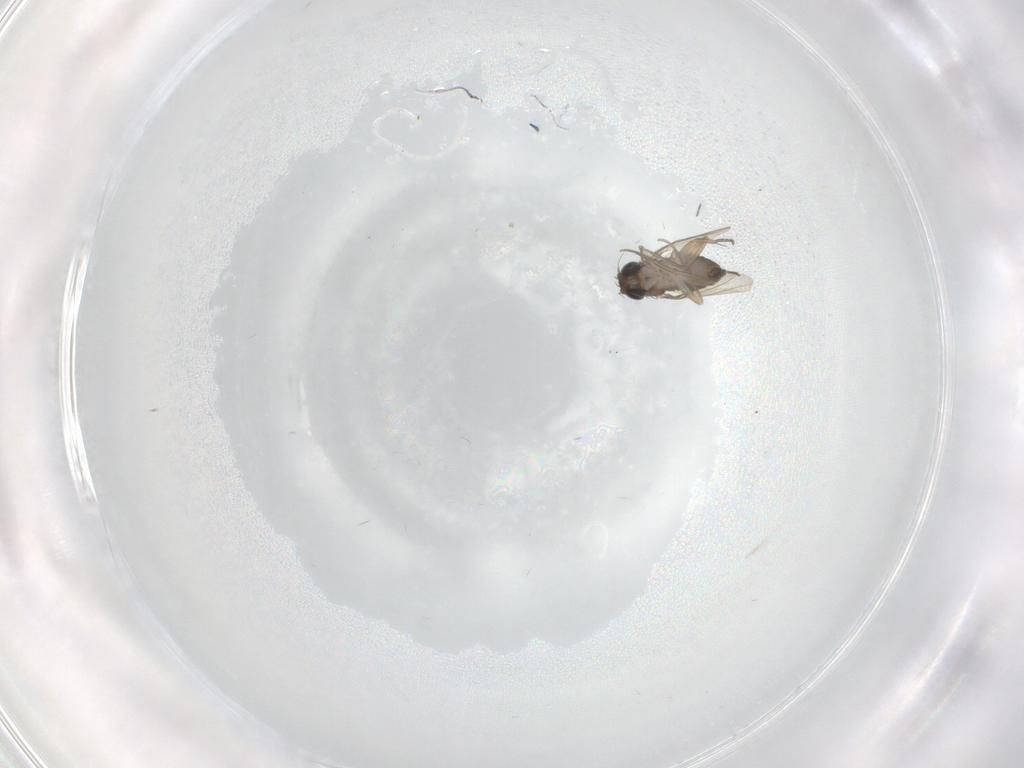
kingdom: Animalia
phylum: Arthropoda
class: Insecta
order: Diptera
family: Phoridae
